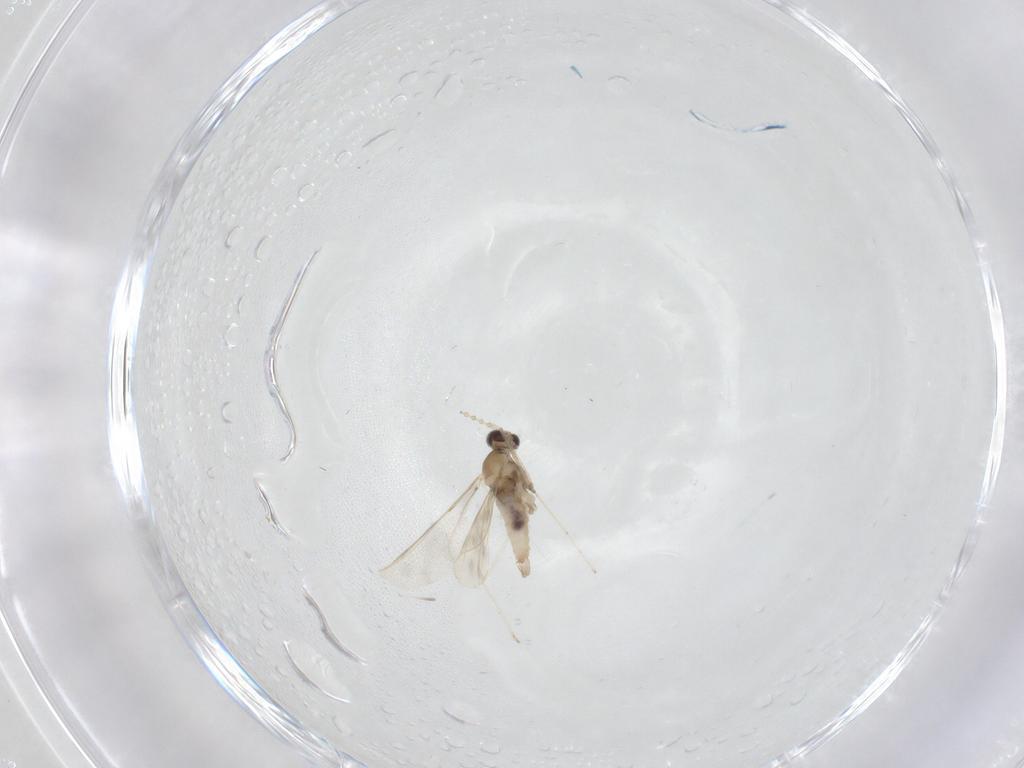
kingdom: Animalia
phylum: Arthropoda
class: Insecta
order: Diptera
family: Cecidomyiidae
